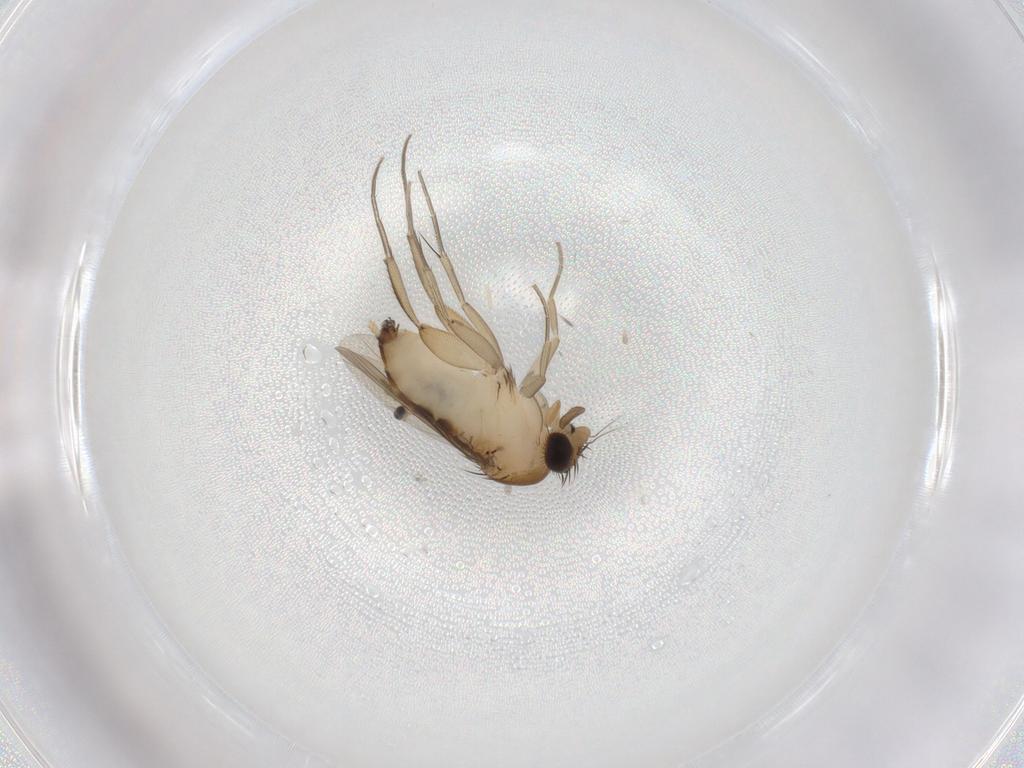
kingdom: Animalia
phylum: Arthropoda
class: Insecta
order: Diptera
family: Phoridae
